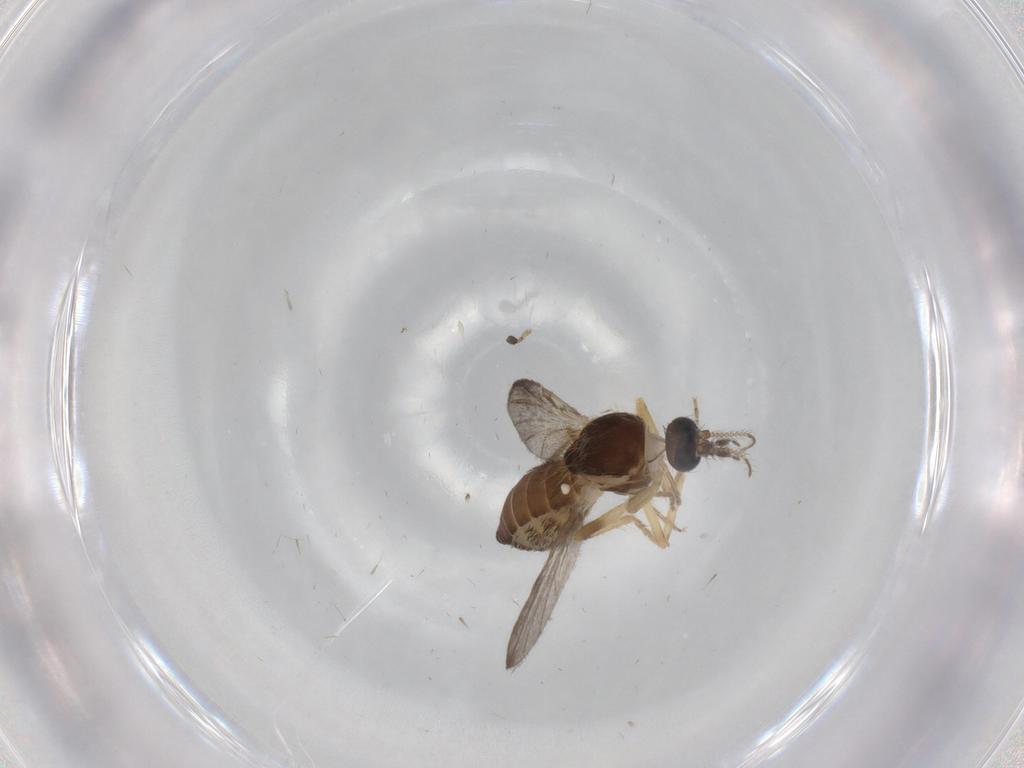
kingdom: Animalia
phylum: Arthropoda
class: Insecta
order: Diptera
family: Ceratopogonidae
